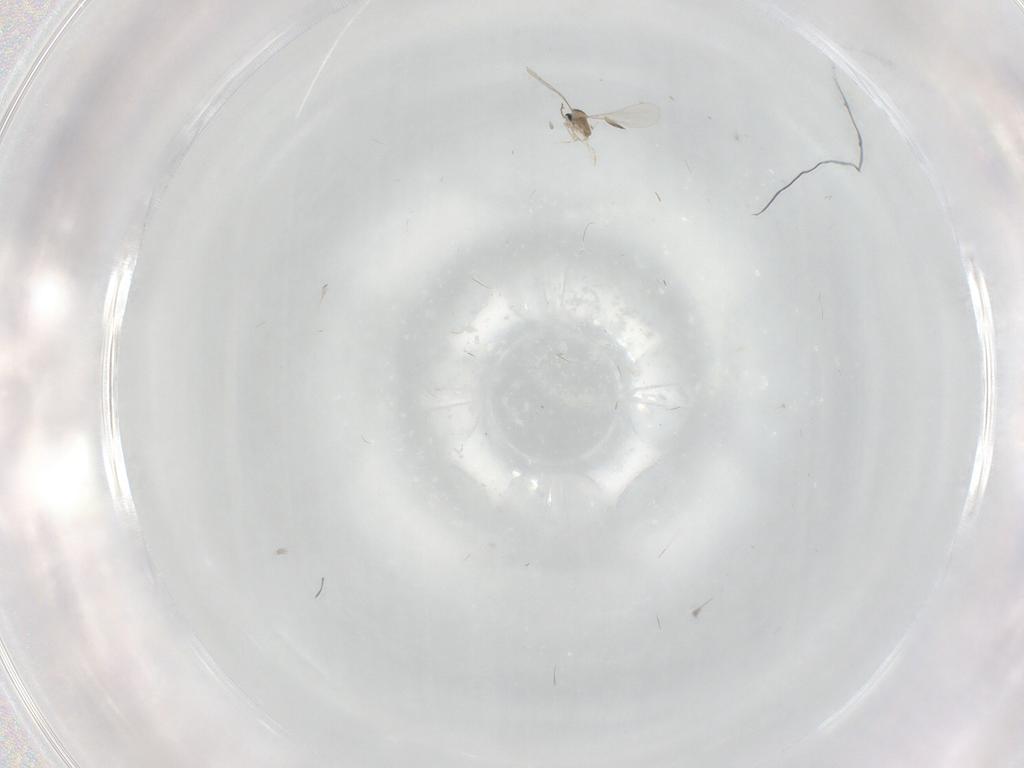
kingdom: Animalia
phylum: Arthropoda
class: Insecta
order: Diptera
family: Cecidomyiidae
